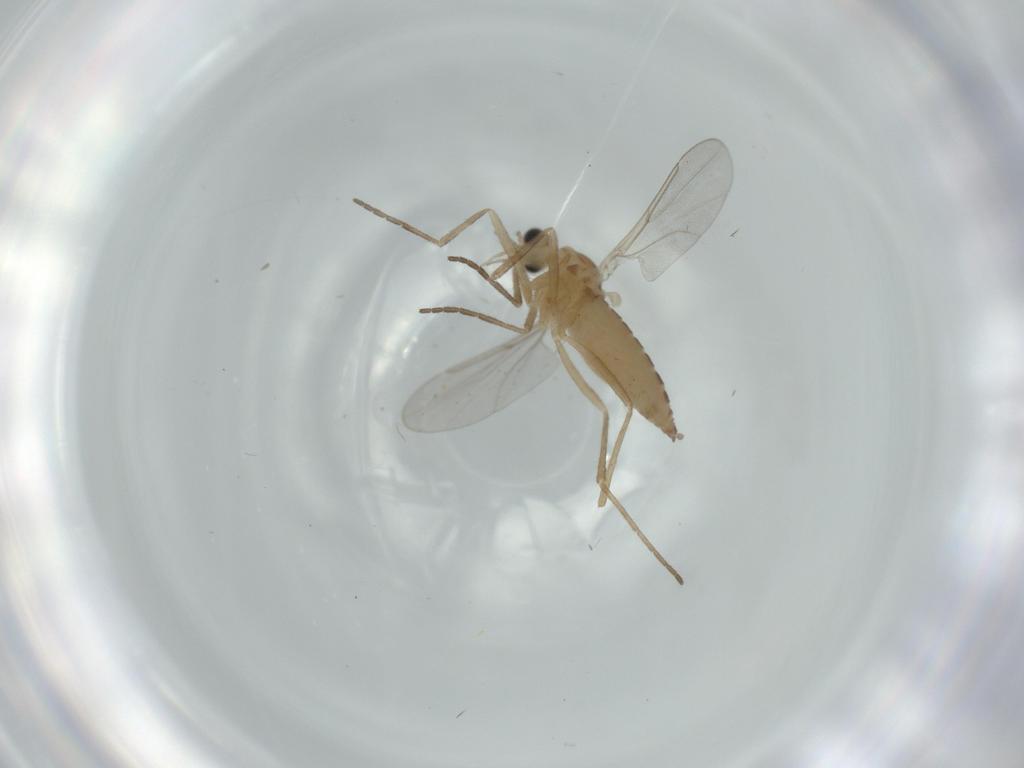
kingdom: Animalia
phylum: Arthropoda
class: Insecta
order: Diptera
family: Cecidomyiidae
